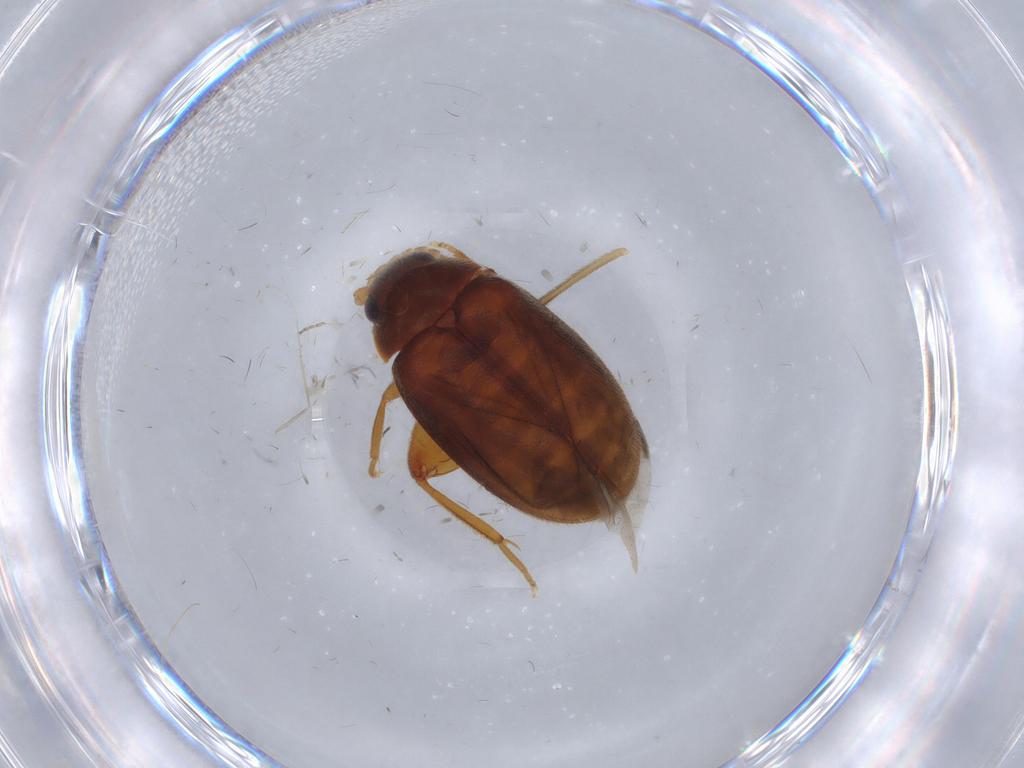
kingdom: Animalia
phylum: Arthropoda
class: Insecta
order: Coleoptera
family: Scirtidae
